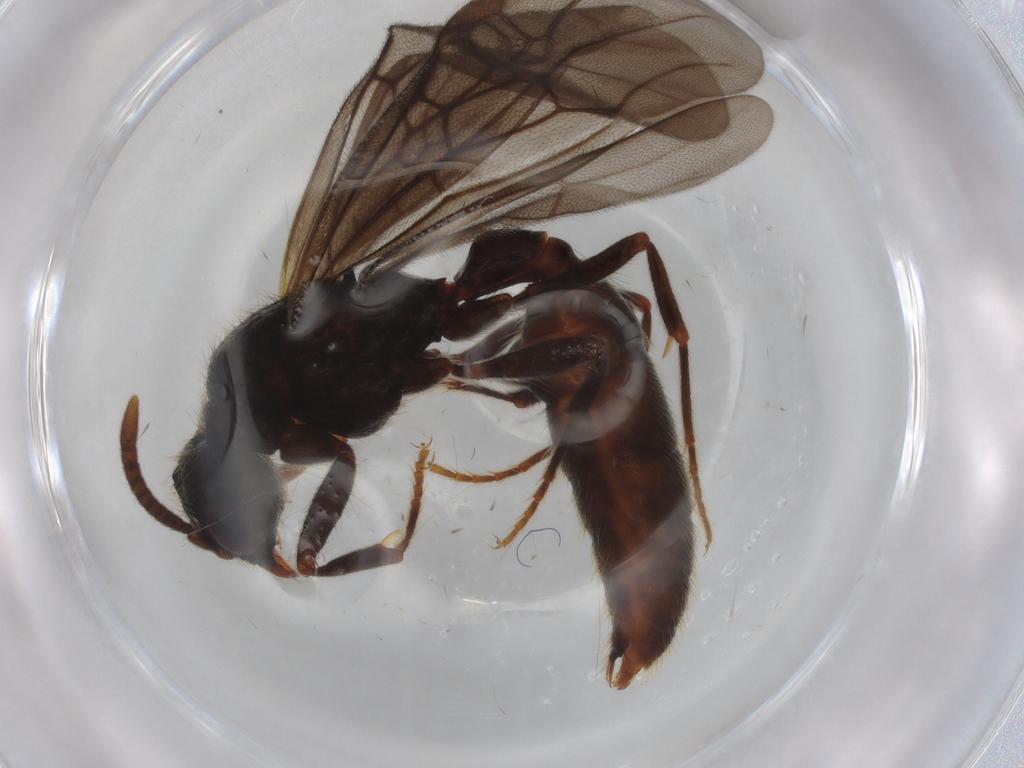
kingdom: Animalia
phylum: Arthropoda
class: Insecta
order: Hymenoptera
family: Formicidae
